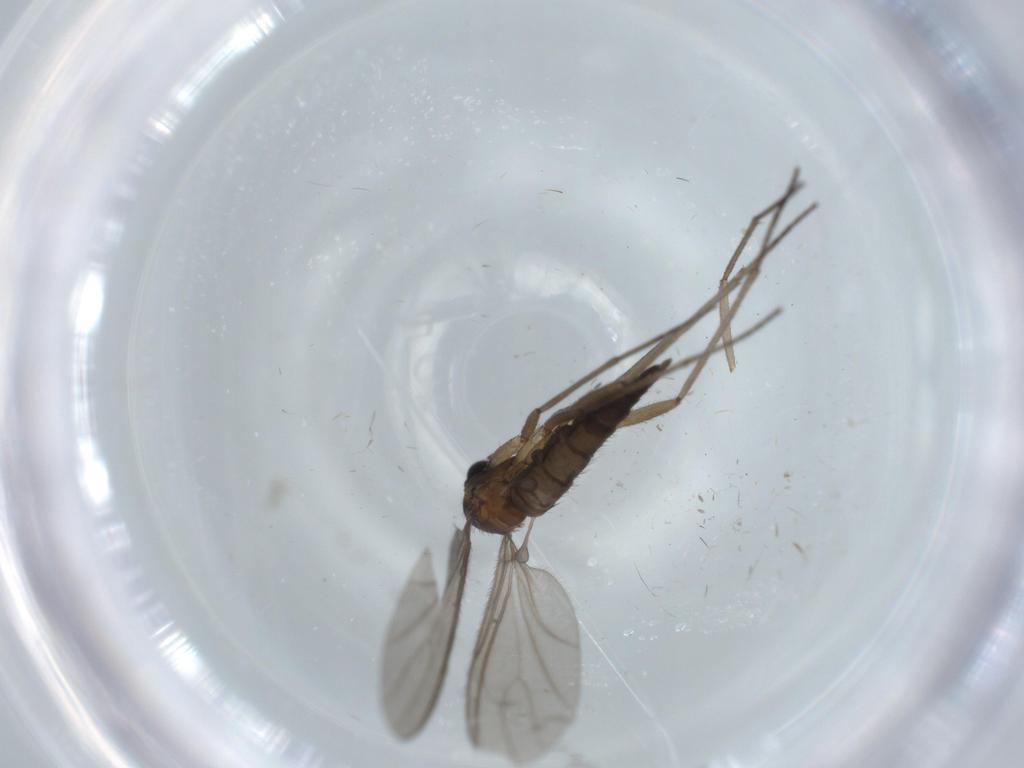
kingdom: Animalia
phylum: Arthropoda
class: Insecta
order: Diptera
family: Sciaridae
